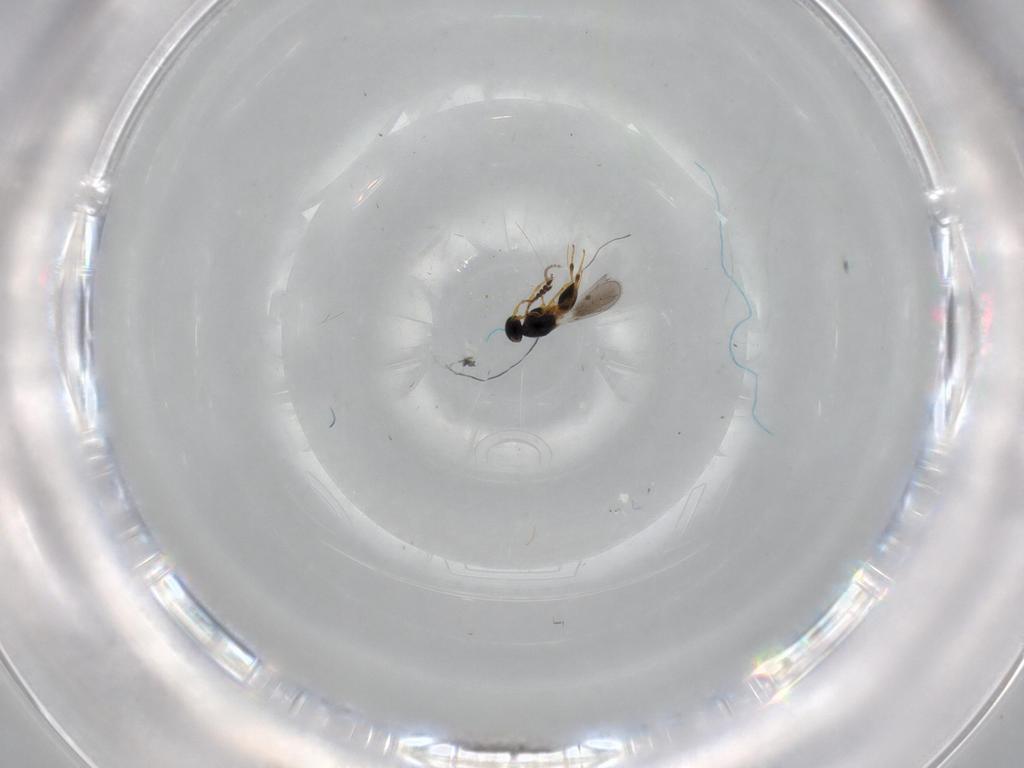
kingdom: Animalia
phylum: Arthropoda
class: Insecta
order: Hymenoptera
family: Platygastridae
